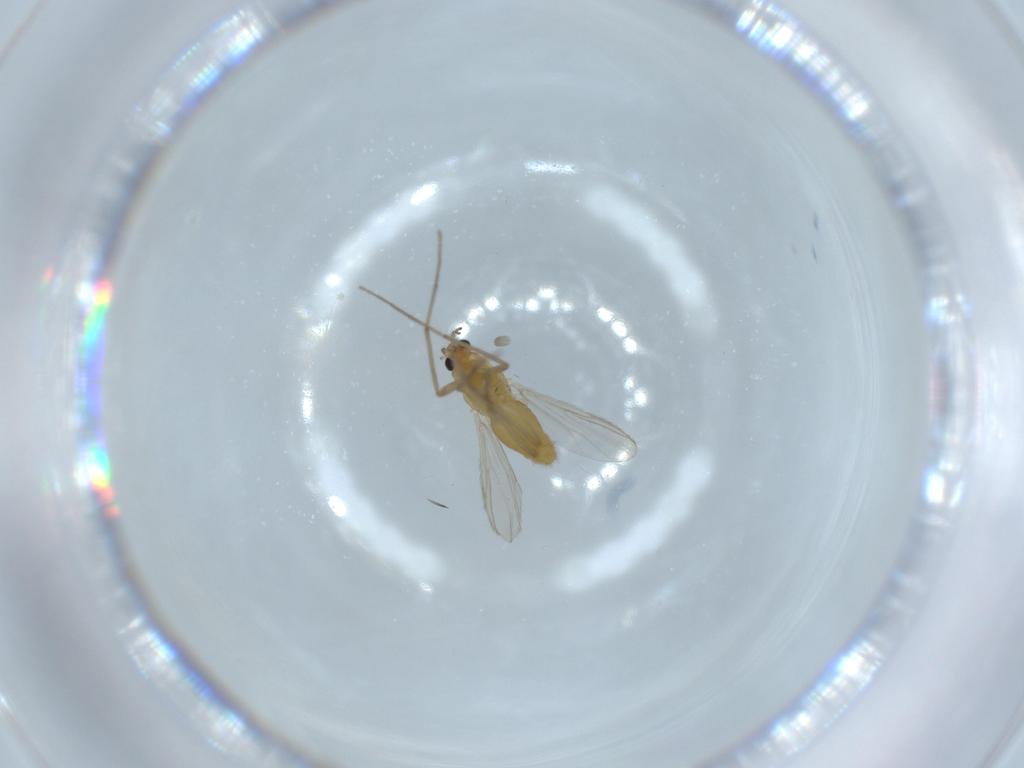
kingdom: Animalia
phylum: Arthropoda
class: Insecta
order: Diptera
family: Chironomidae
